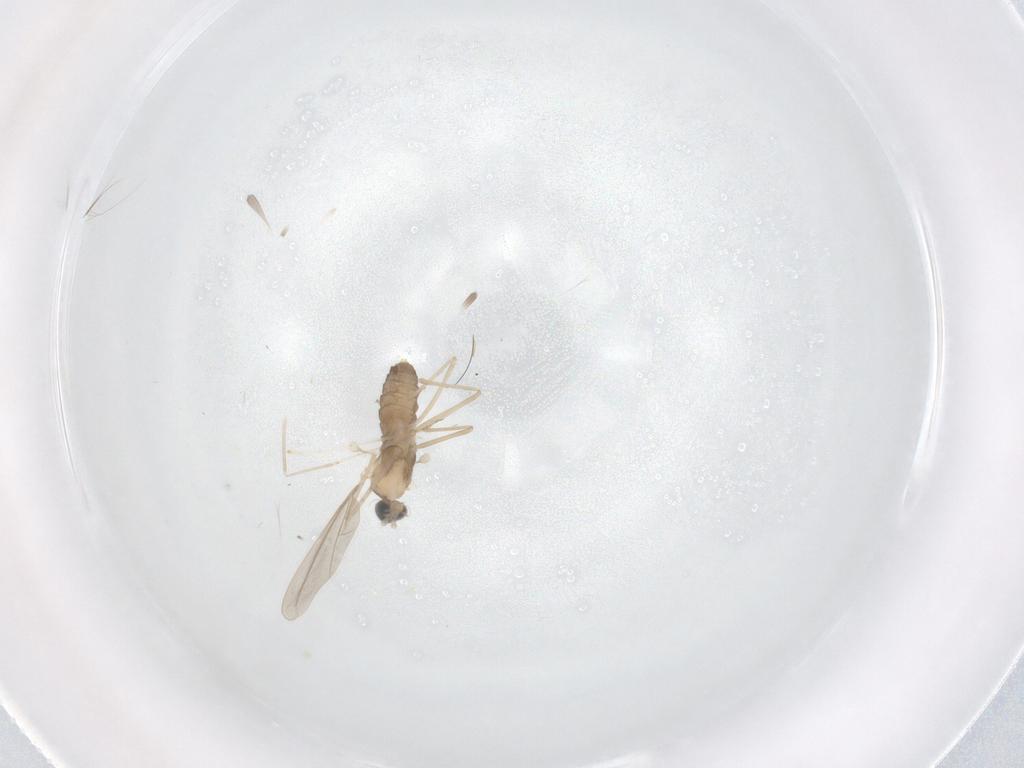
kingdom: Animalia
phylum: Arthropoda
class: Insecta
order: Diptera
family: Cecidomyiidae
